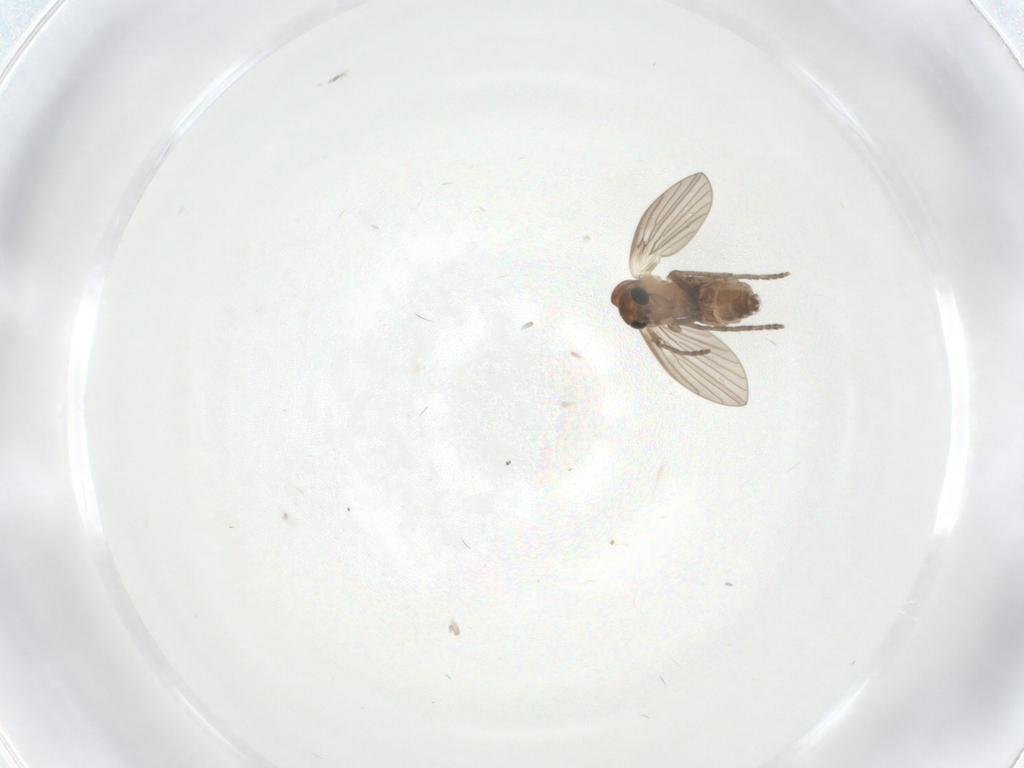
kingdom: Animalia
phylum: Arthropoda
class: Insecta
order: Diptera
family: Psychodidae
